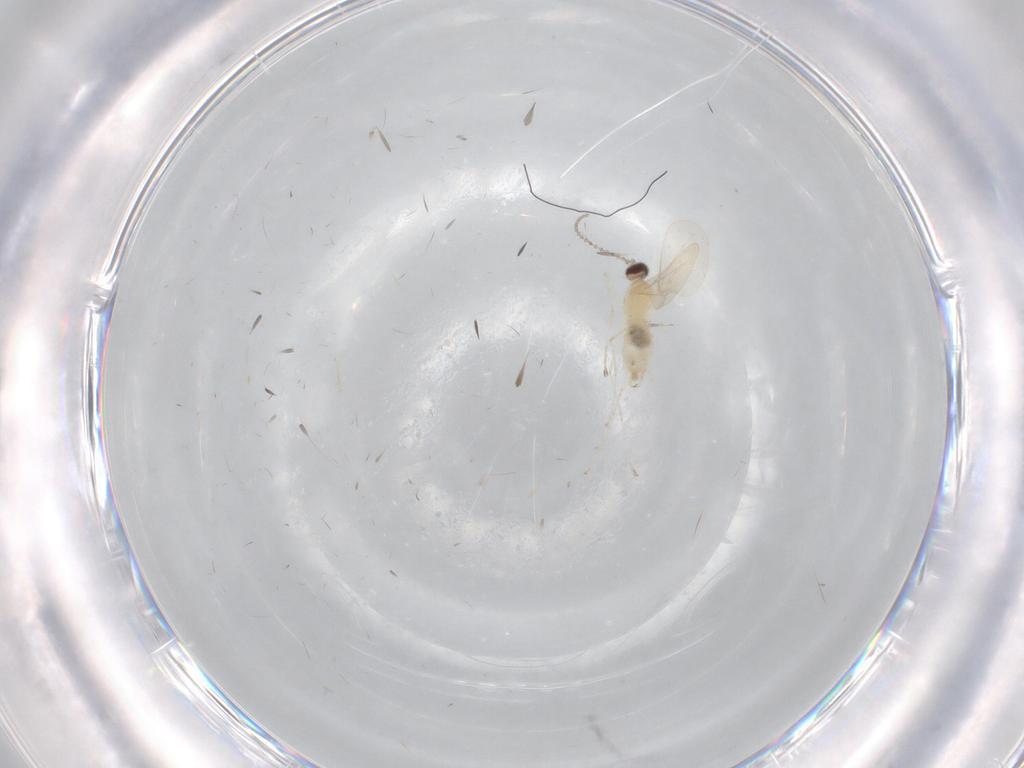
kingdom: Animalia
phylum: Arthropoda
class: Insecta
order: Diptera
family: Cecidomyiidae
